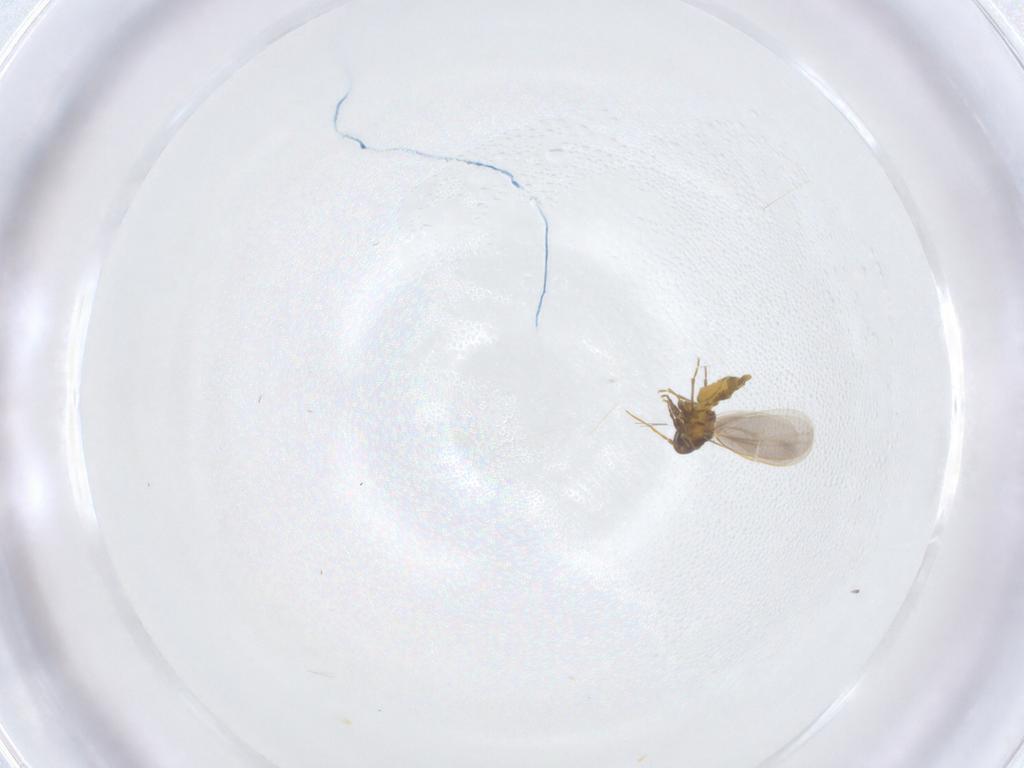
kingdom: Animalia
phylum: Arthropoda
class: Insecta
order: Hemiptera
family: Aleyrodidae
